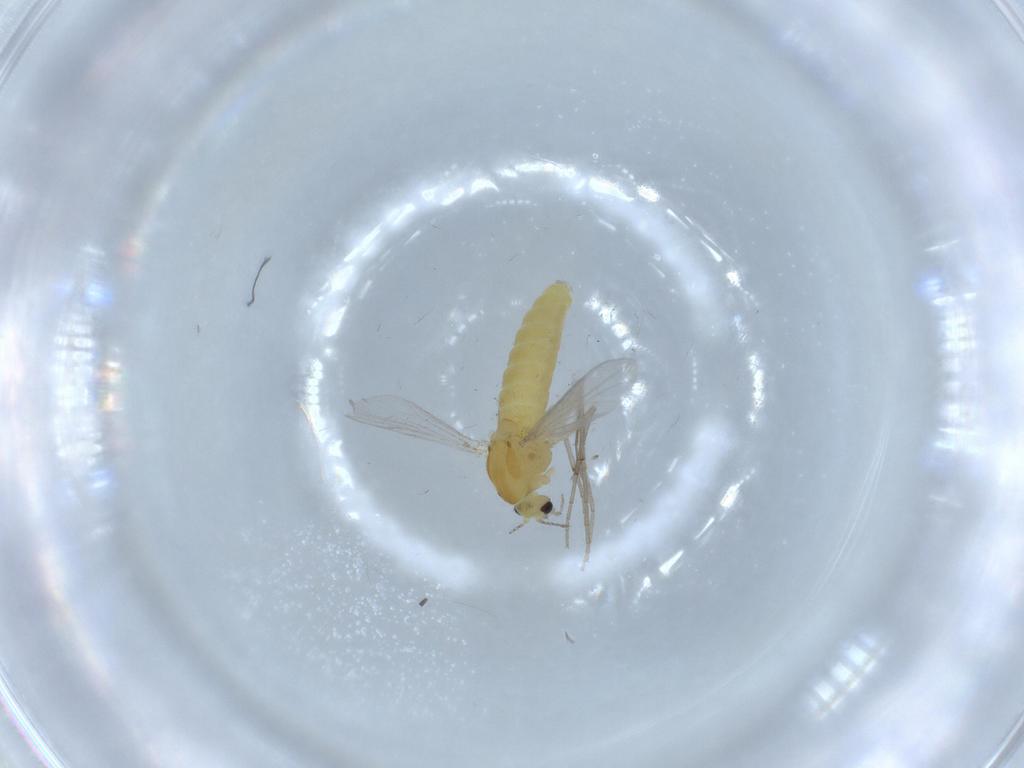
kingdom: Animalia
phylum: Arthropoda
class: Insecta
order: Diptera
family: Chironomidae
